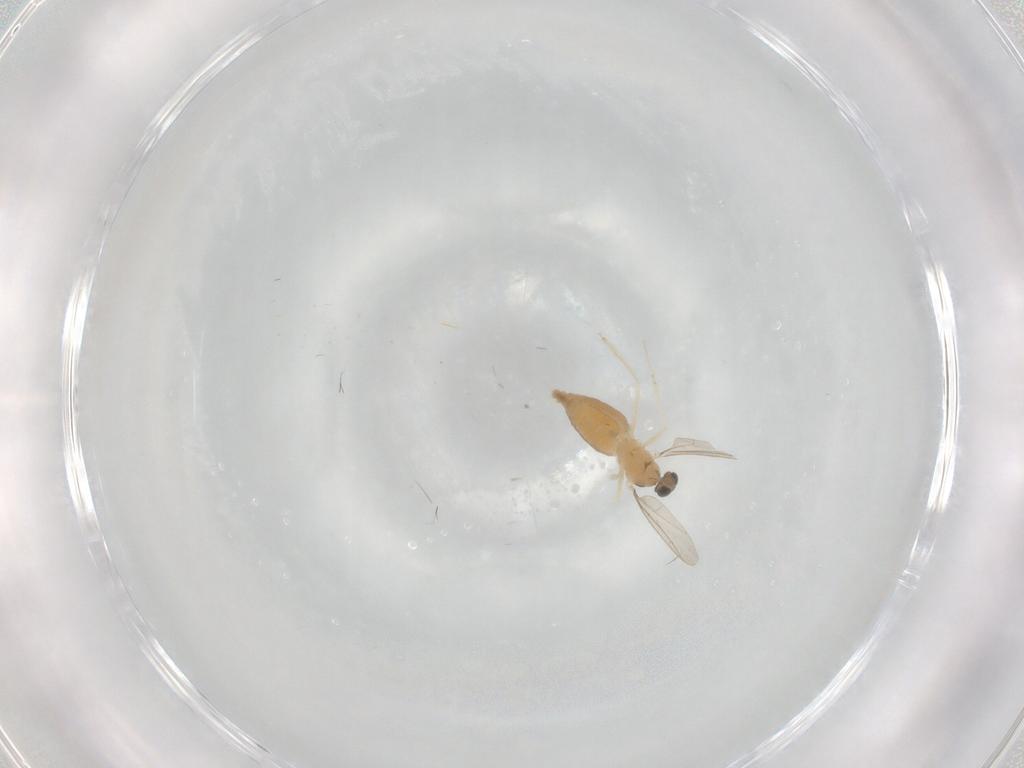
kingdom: Animalia
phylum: Arthropoda
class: Insecta
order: Diptera
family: Cecidomyiidae
